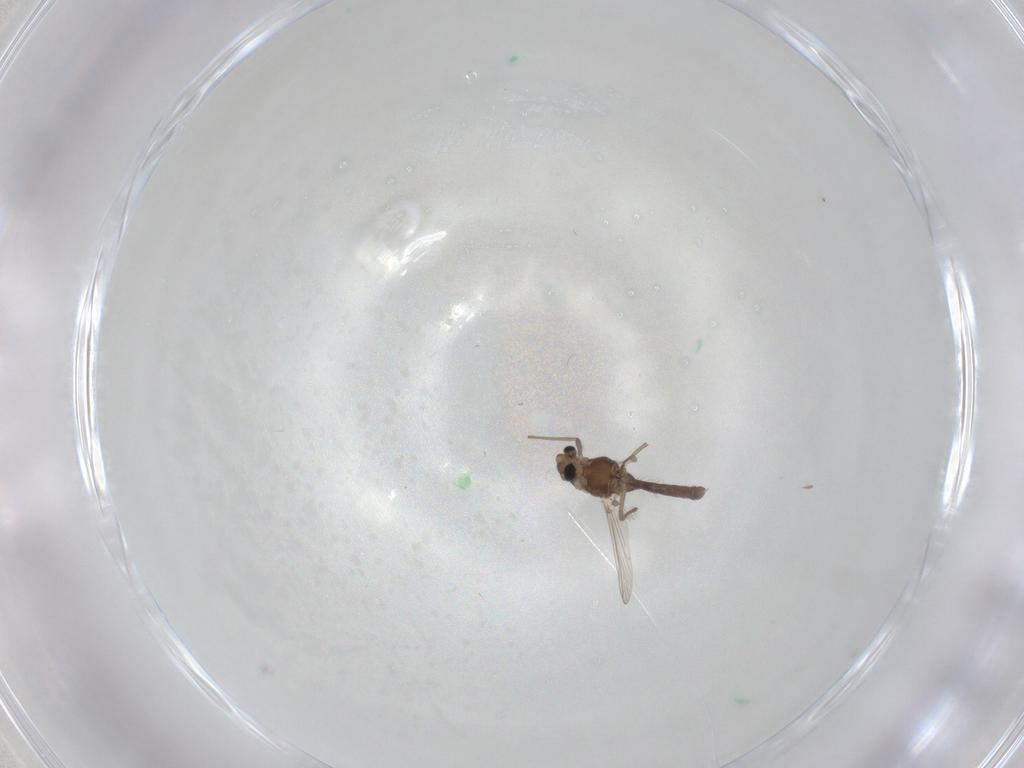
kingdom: Animalia
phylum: Arthropoda
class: Insecta
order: Diptera
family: Chironomidae
